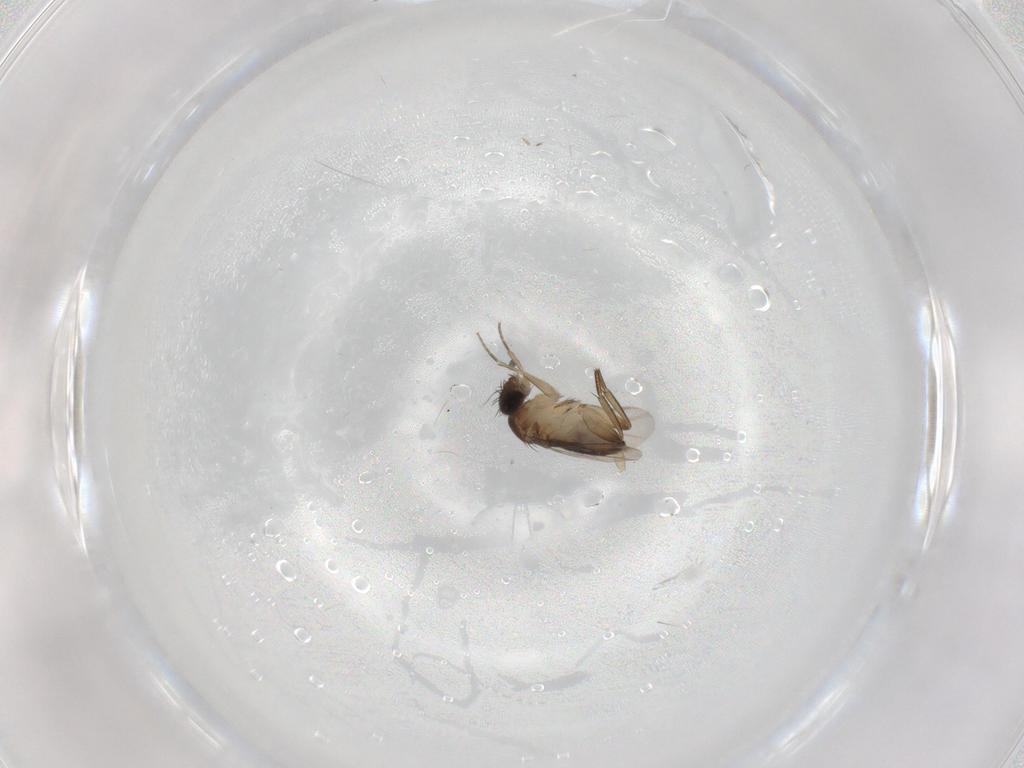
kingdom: Animalia
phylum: Arthropoda
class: Insecta
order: Diptera
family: Phoridae
